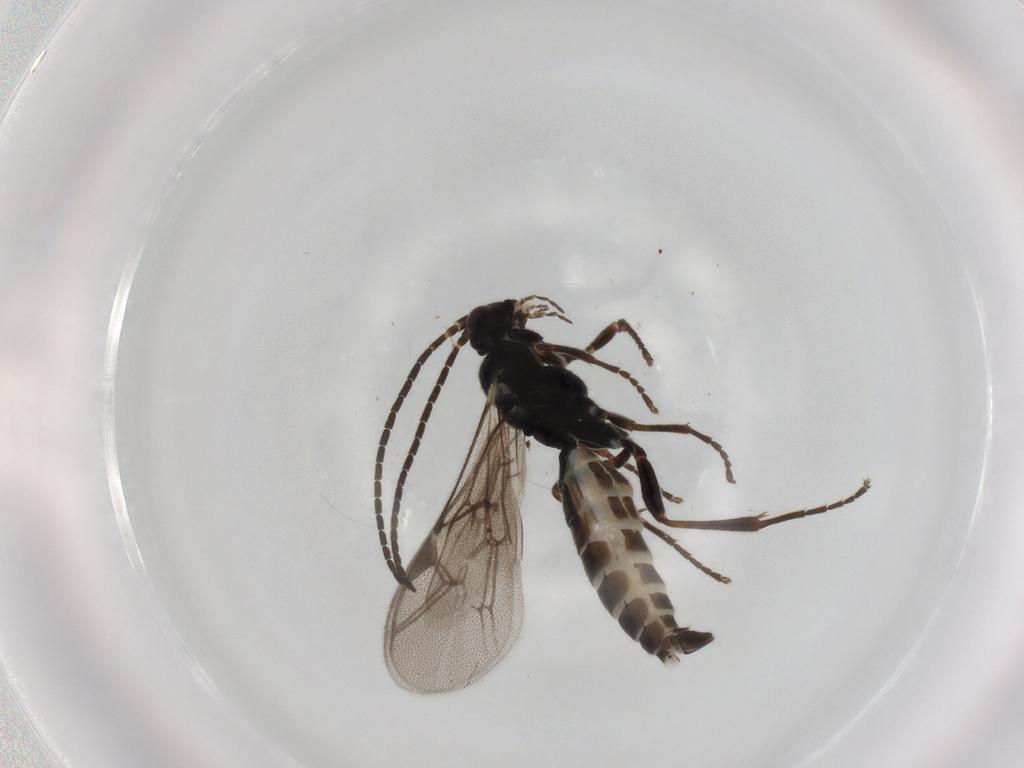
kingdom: Animalia
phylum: Arthropoda
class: Insecta
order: Hymenoptera
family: Ichneumonidae
